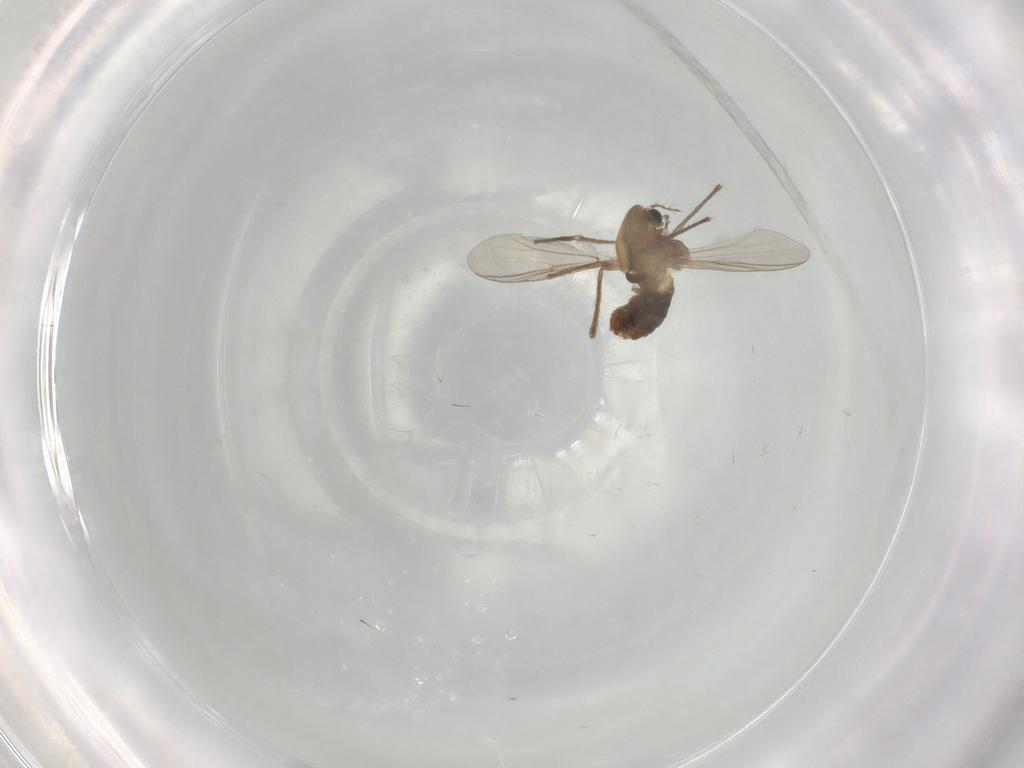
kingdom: Animalia
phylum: Arthropoda
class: Insecta
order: Diptera
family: Chironomidae
